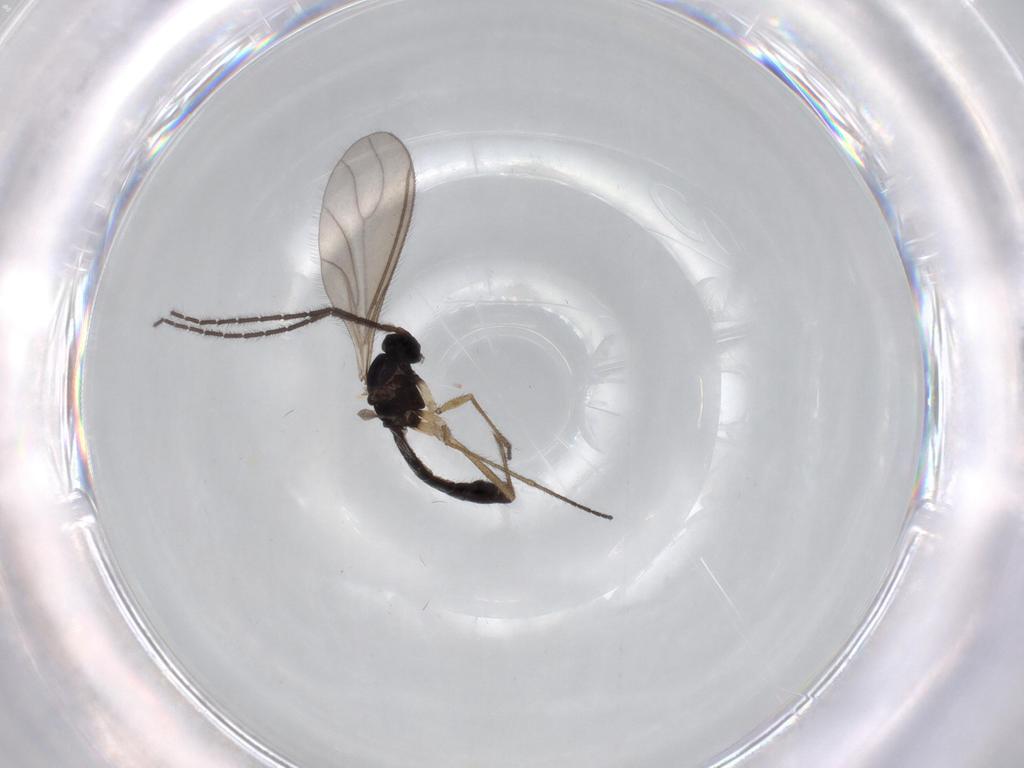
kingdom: Animalia
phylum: Arthropoda
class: Insecta
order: Diptera
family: Sciaridae
